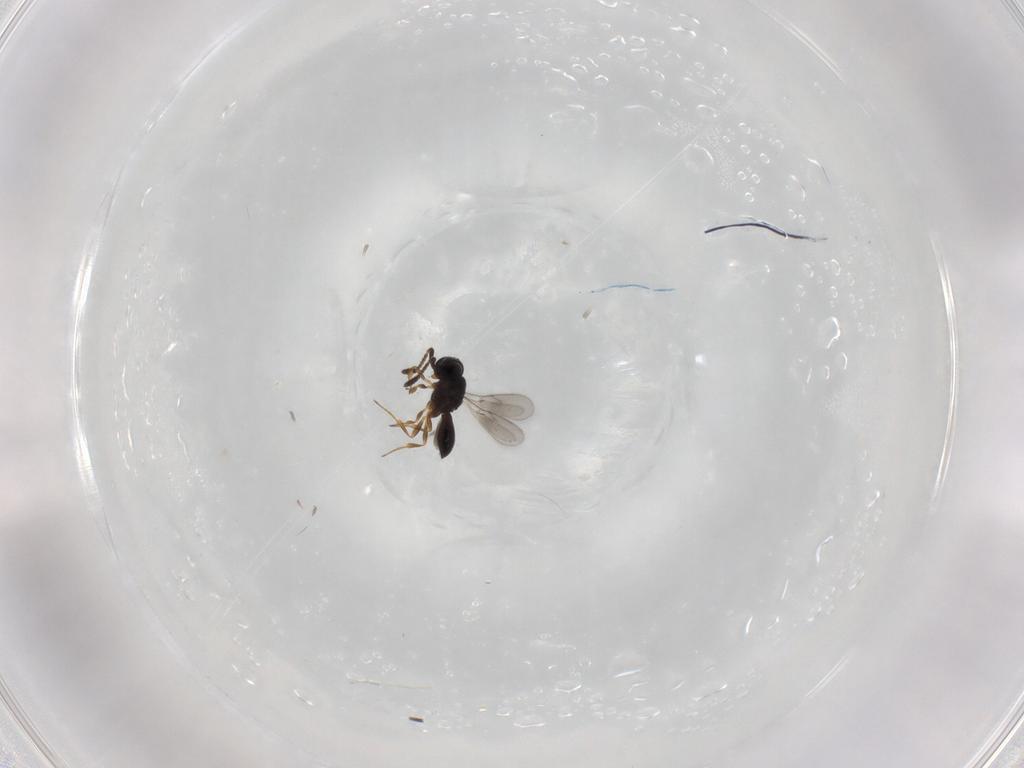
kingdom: Animalia
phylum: Arthropoda
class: Insecta
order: Hymenoptera
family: Scelionidae
